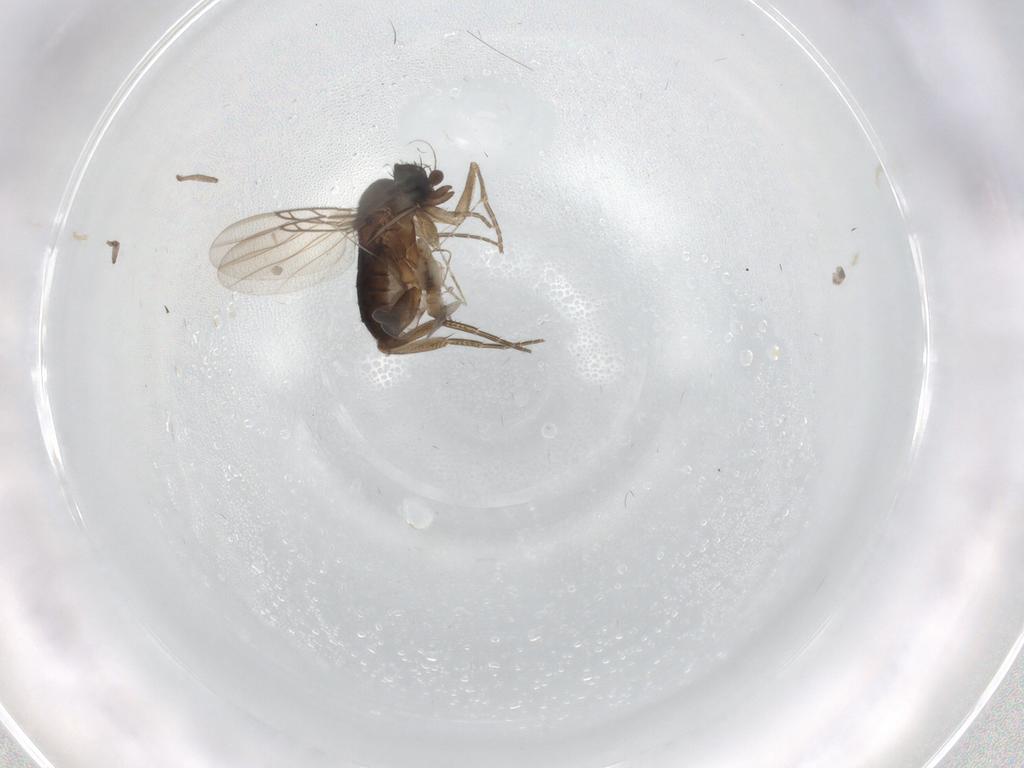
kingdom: Animalia
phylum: Arthropoda
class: Insecta
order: Diptera
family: Phoridae
